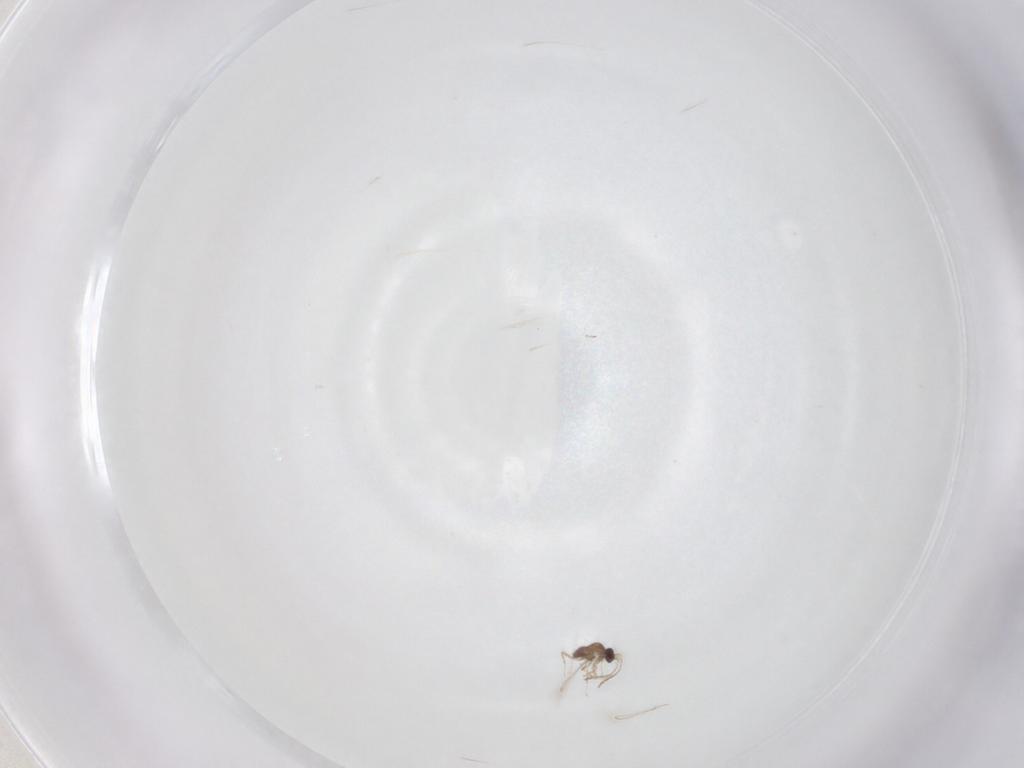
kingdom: Animalia
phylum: Arthropoda
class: Insecta
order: Hymenoptera
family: Mymaridae
